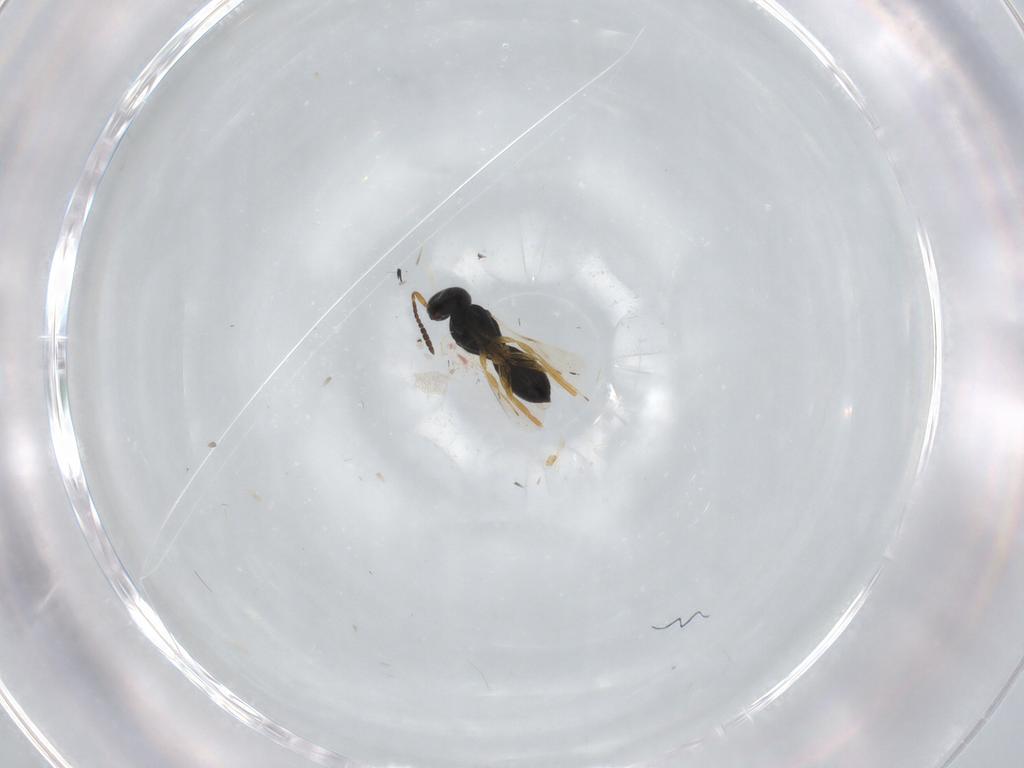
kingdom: Animalia
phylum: Arthropoda
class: Insecta
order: Hymenoptera
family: Scelionidae
